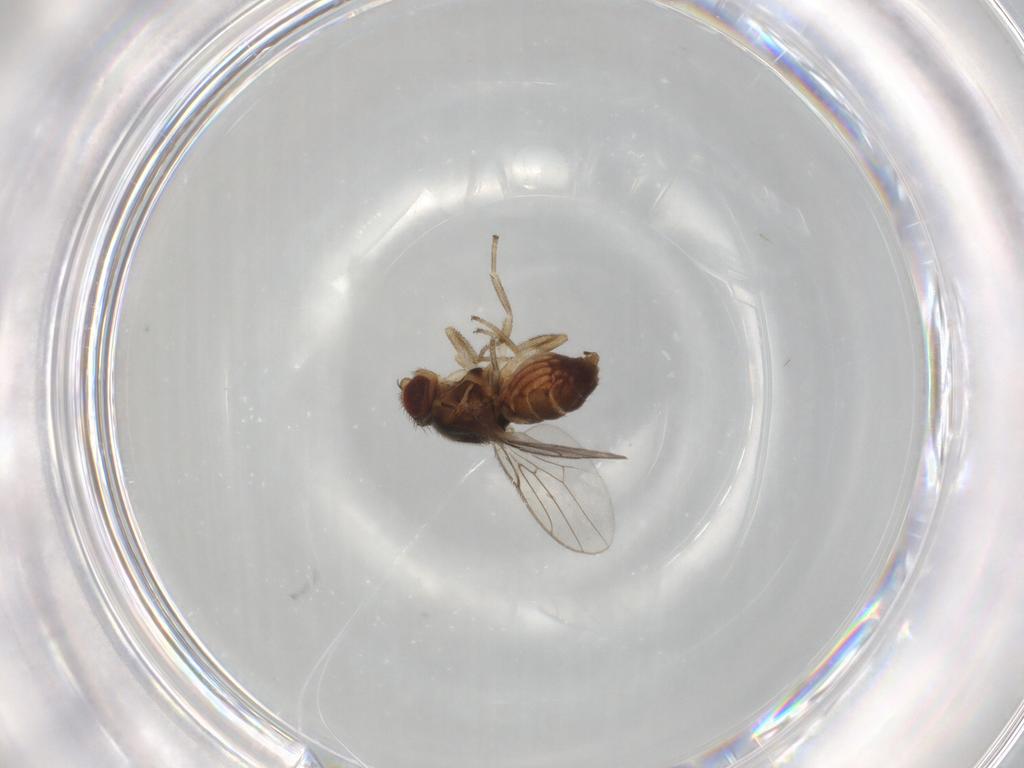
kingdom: Animalia
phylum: Arthropoda
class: Insecta
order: Diptera
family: Chloropidae
